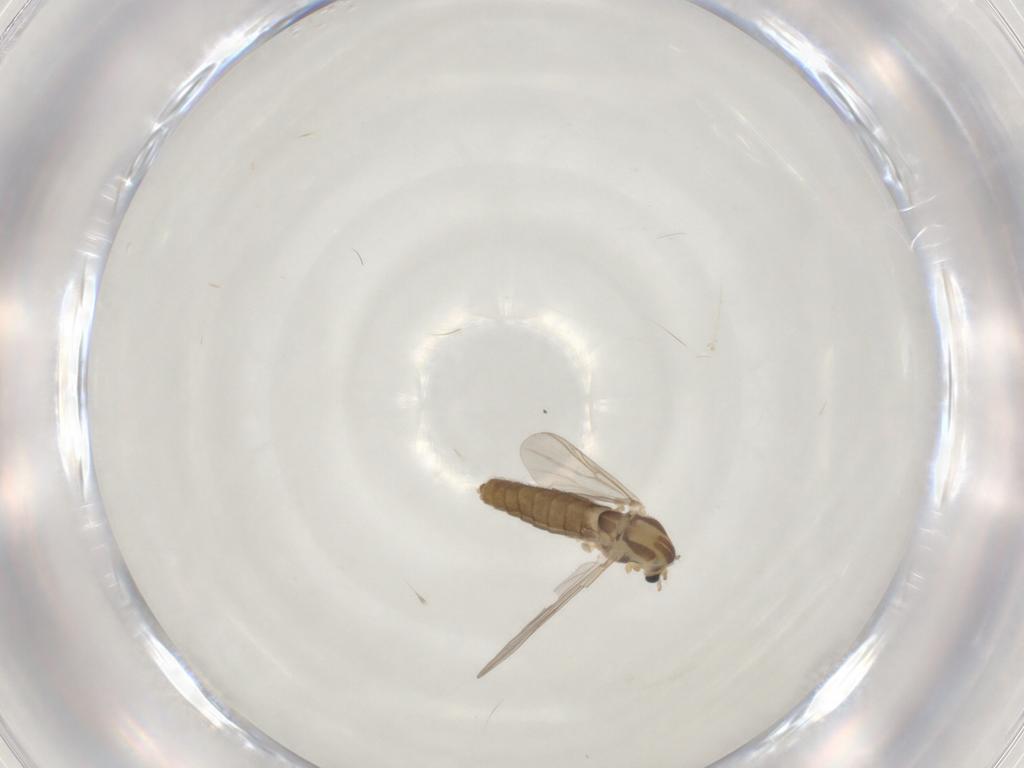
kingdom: Animalia
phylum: Arthropoda
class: Insecta
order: Diptera
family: Chironomidae
